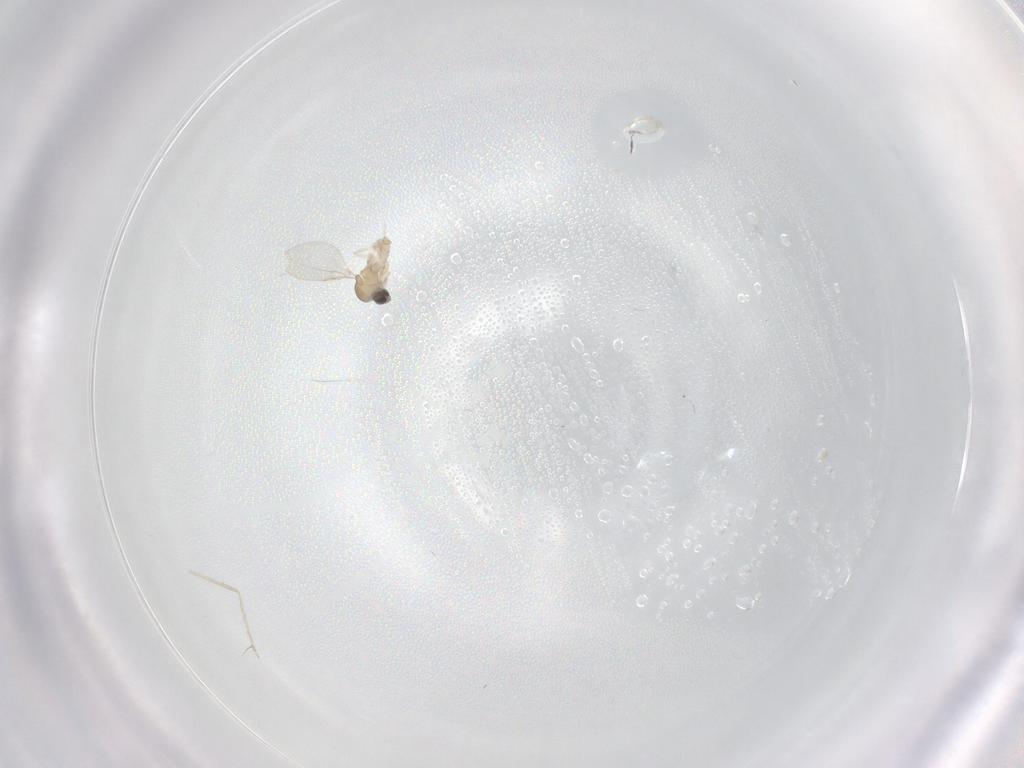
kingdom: Animalia
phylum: Arthropoda
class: Insecta
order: Diptera
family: Cecidomyiidae
